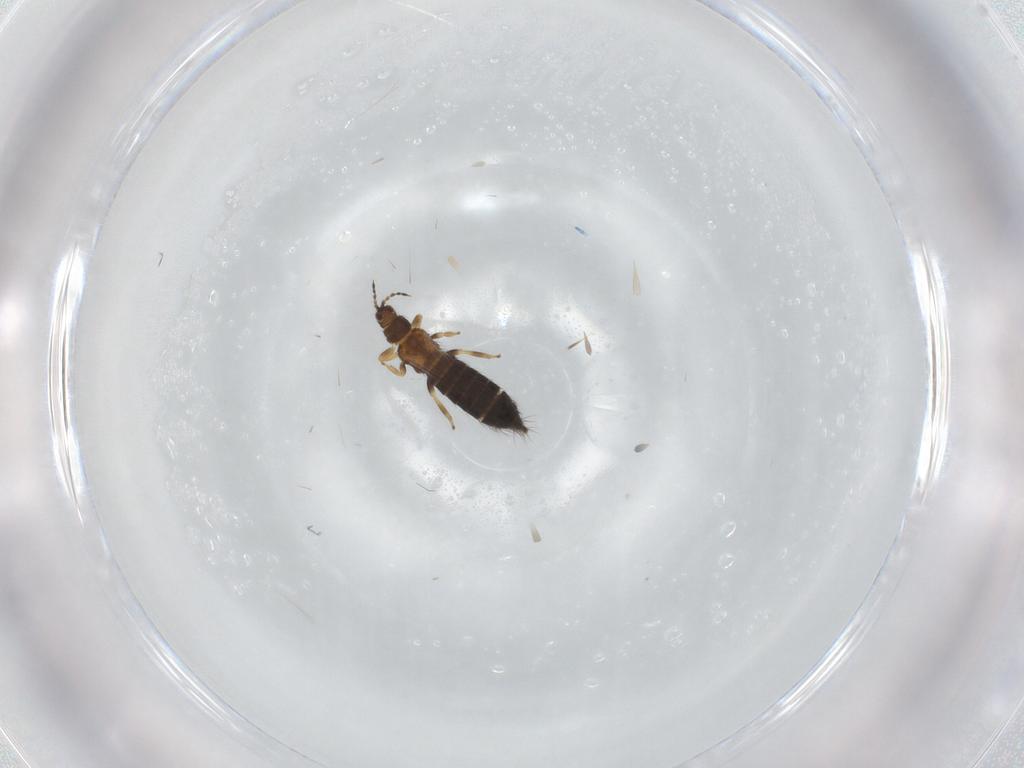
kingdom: Animalia
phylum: Arthropoda
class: Insecta
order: Thysanoptera
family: Thripidae
